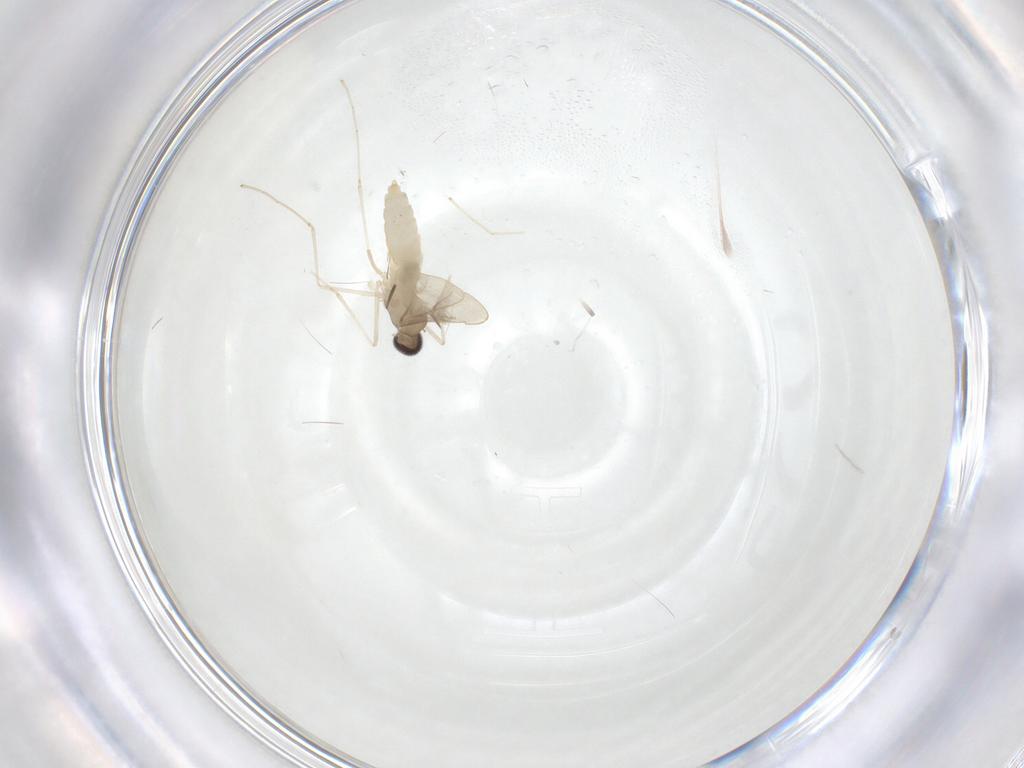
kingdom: Animalia
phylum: Arthropoda
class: Insecta
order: Diptera
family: Cecidomyiidae
